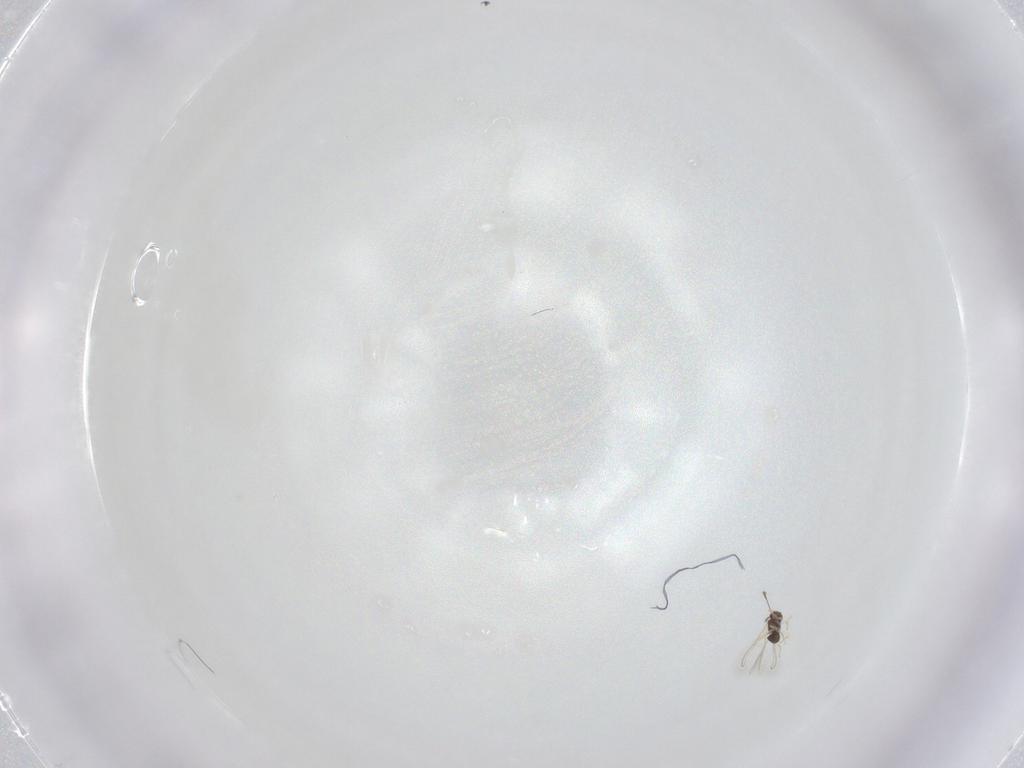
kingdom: Animalia
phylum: Arthropoda
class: Insecta
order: Hymenoptera
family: Mymaridae
